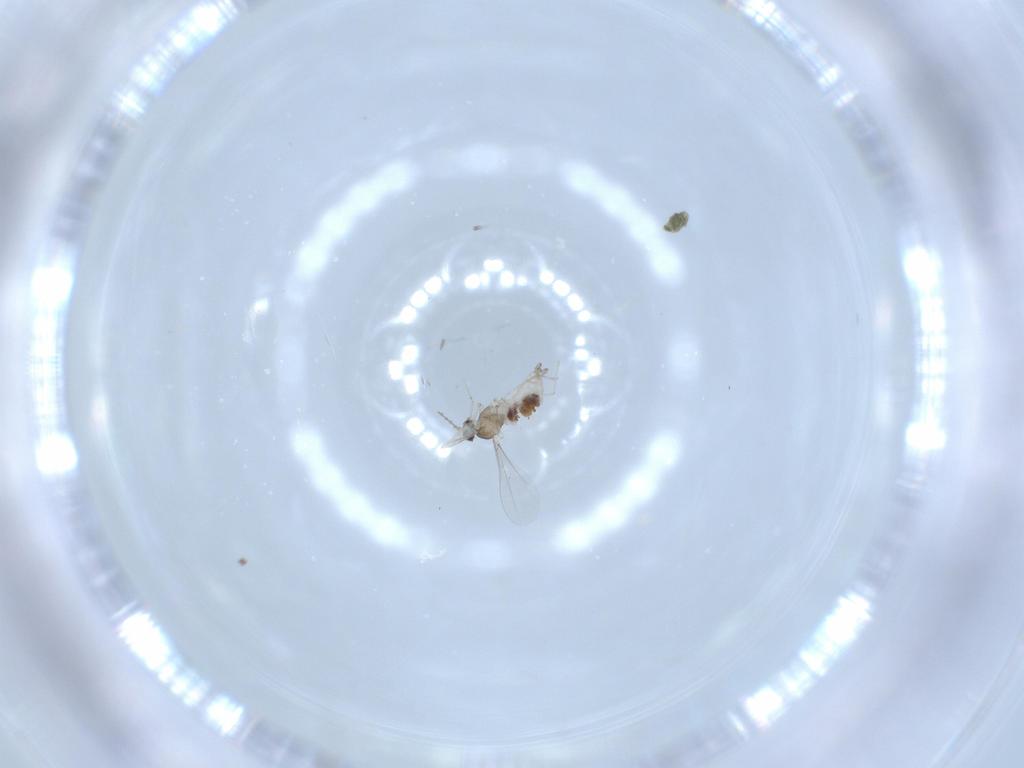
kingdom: Animalia
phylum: Arthropoda
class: Insecta
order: Diptera
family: Cecidomyiidae
